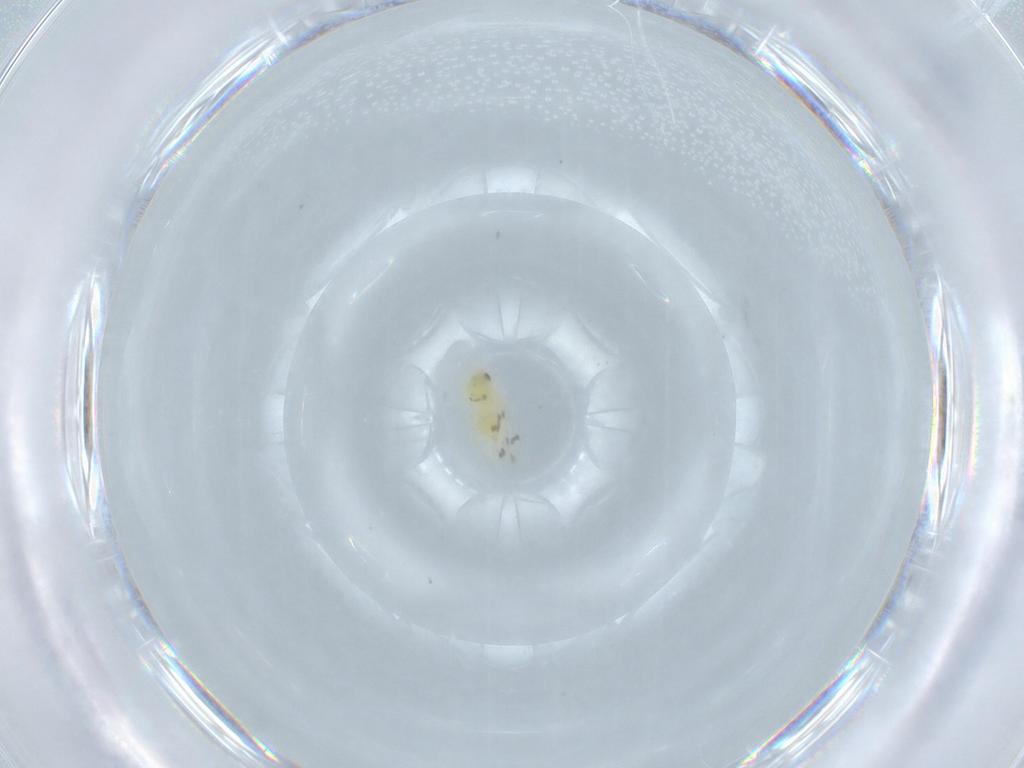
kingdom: Animalia
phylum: Arthropoda
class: Insecta
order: Hemiptera
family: Aleyrodidae
